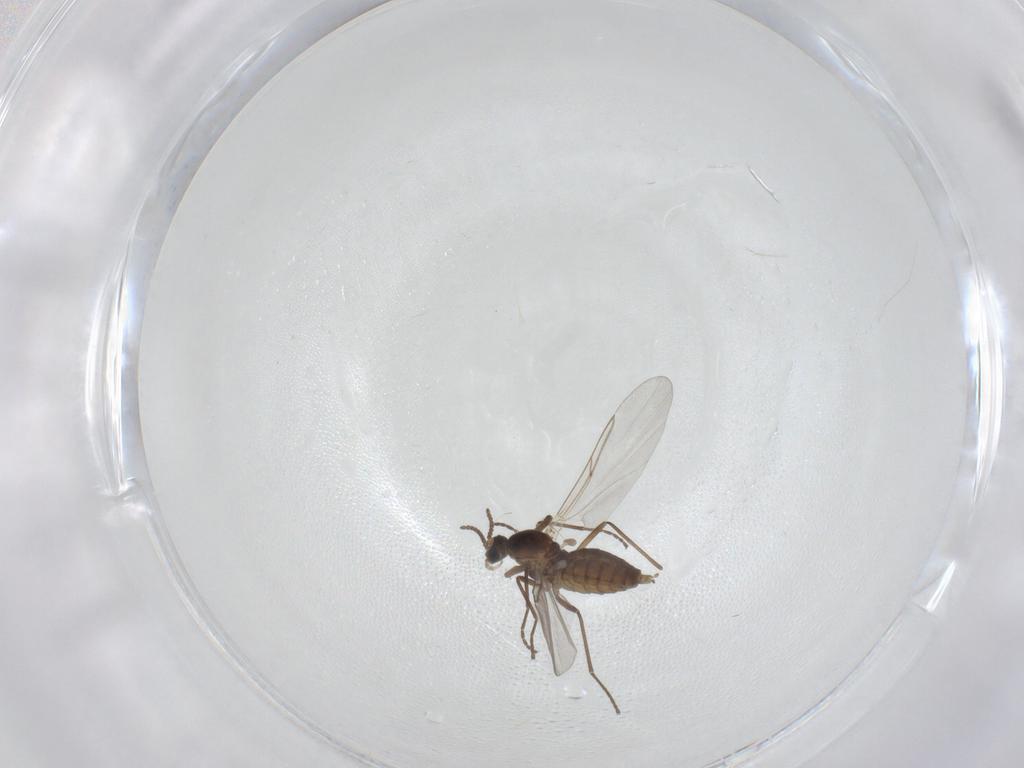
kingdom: Animalia
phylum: Arthropoda
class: Insecta
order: Diptera
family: Cecidomyiidae
